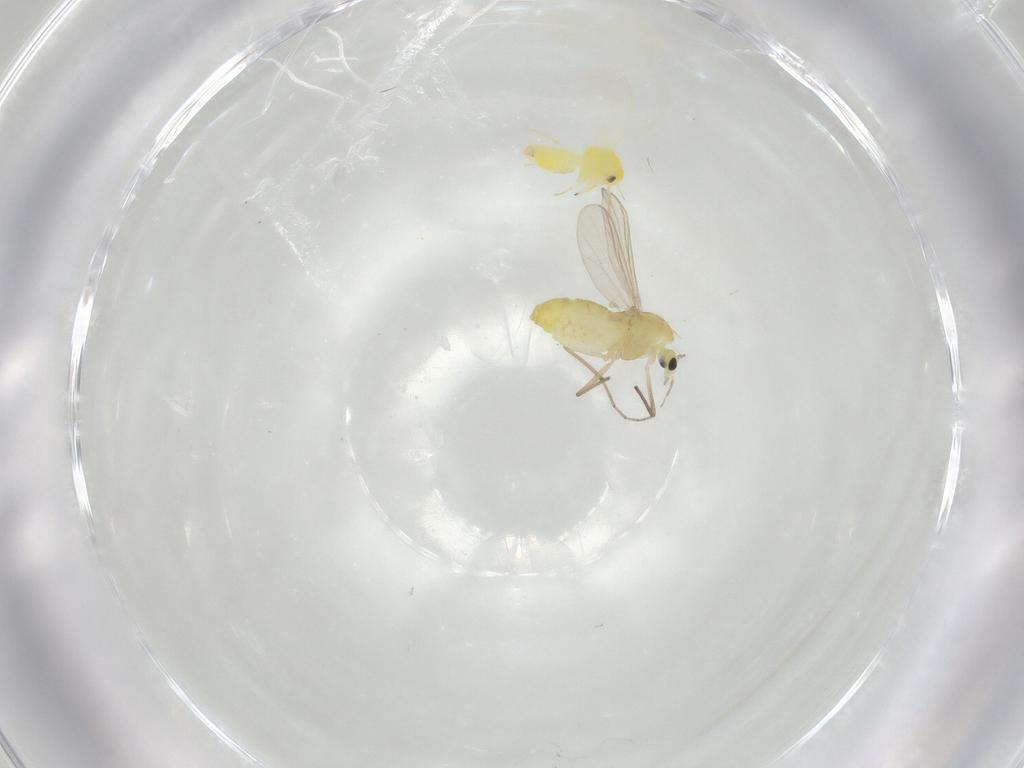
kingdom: Animalia
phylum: Arthropoda
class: Insecta
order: Diptera
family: Chironomidae
